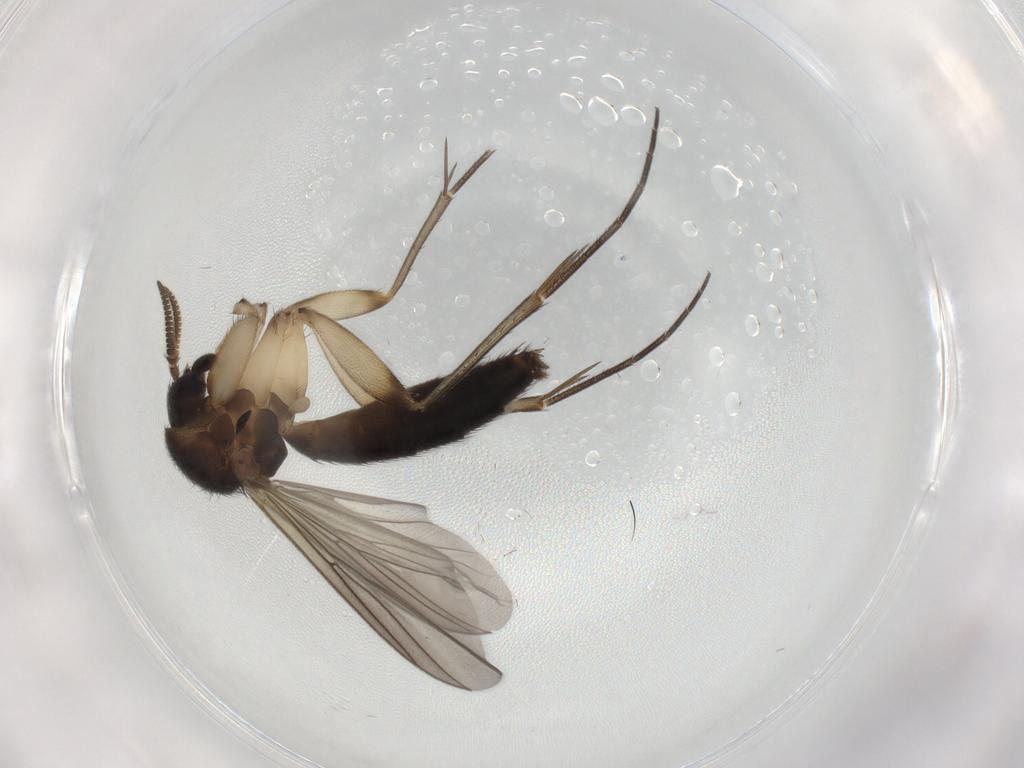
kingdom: Animalia
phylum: Arthropoda
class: Insecta
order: Diptera
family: Mycetophilidae
